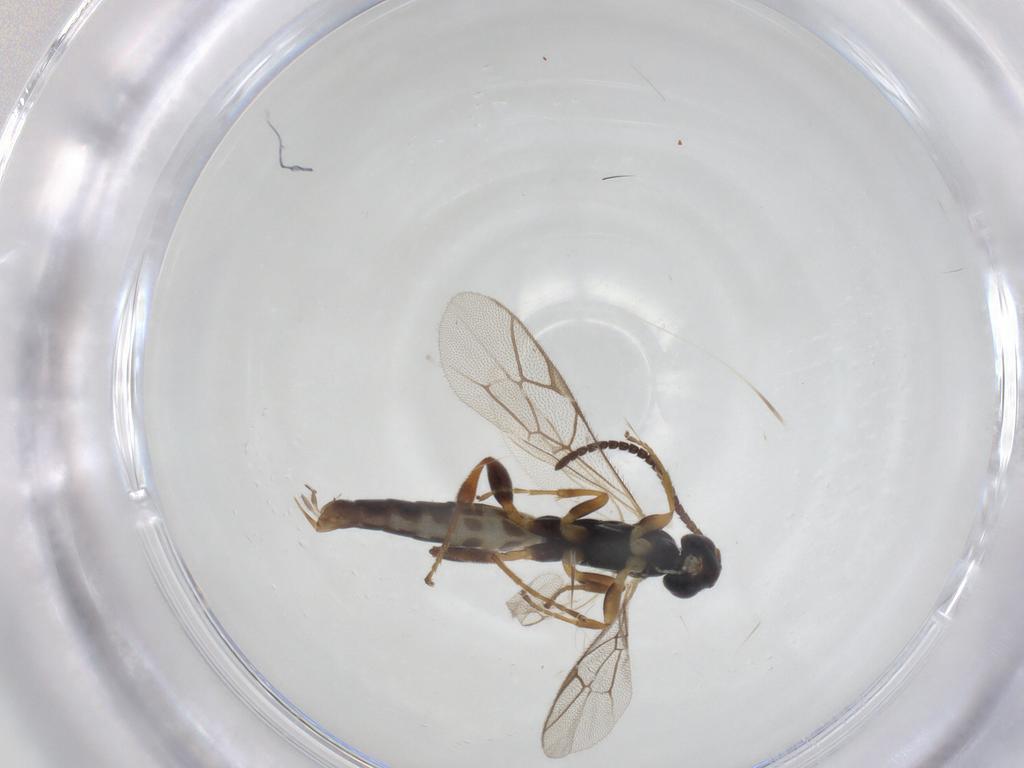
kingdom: Animalia
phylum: Arthropoda
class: Insecta
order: Hymenoptera
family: Ichneumonidae
